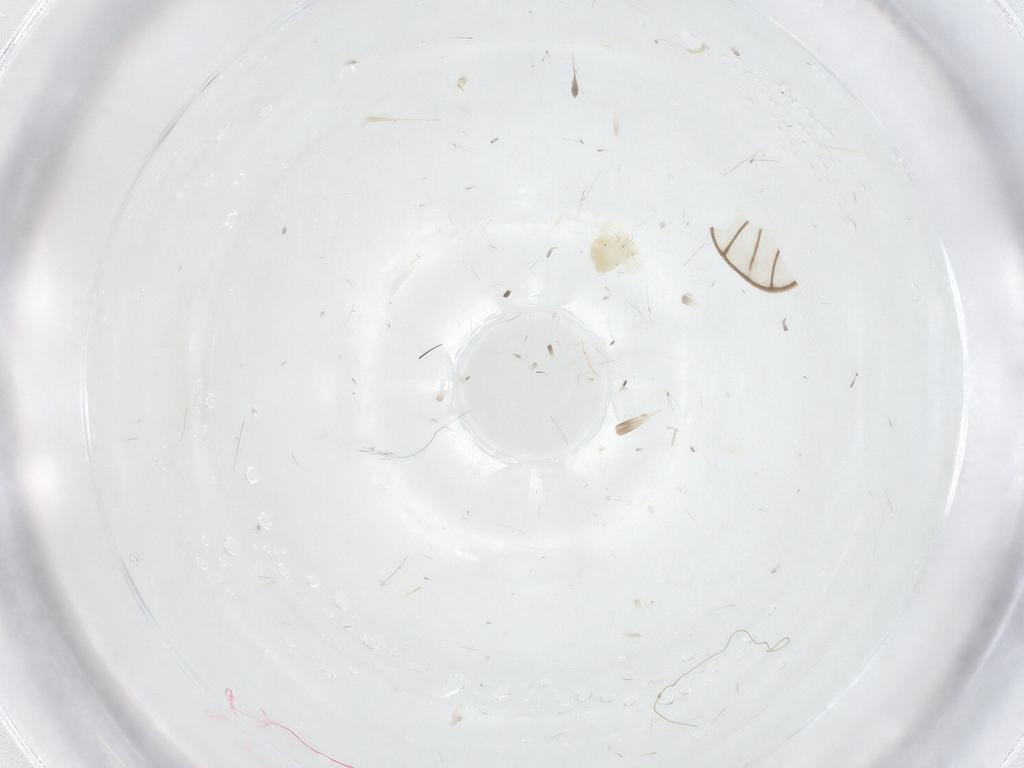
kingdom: Animalia
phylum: Arthropoda
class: Arachnida
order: Trombidiformes
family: Anystidae
